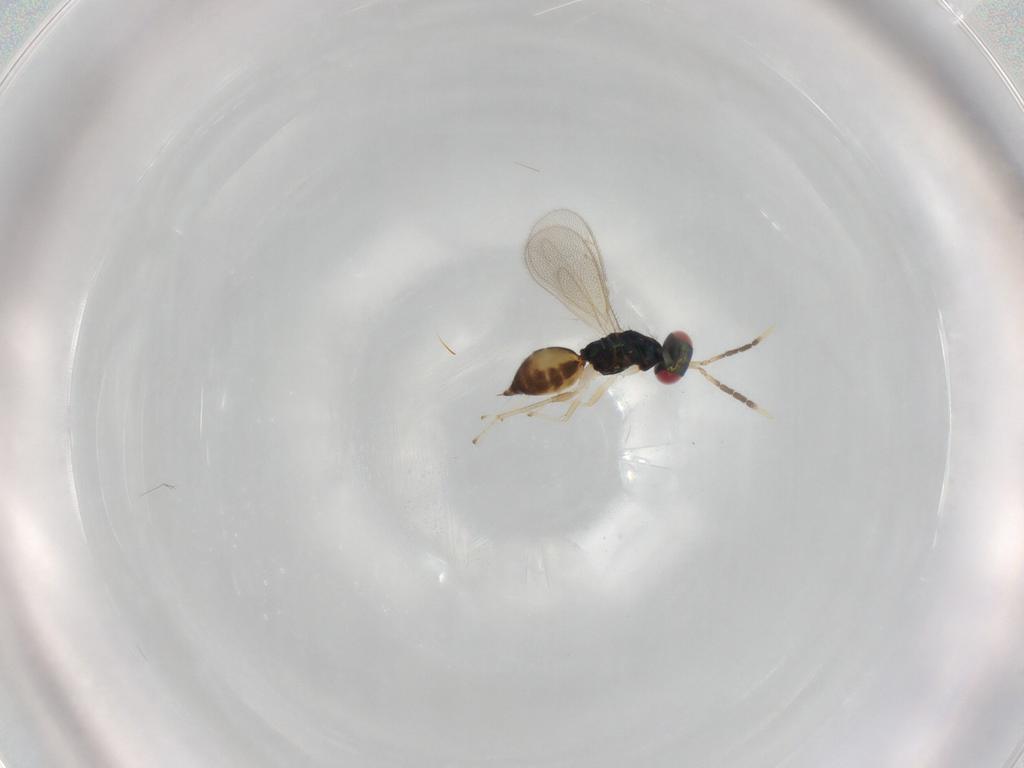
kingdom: Animalia
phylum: Arthropoda
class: Insecta
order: Hymenoptera
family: Eulophidae
